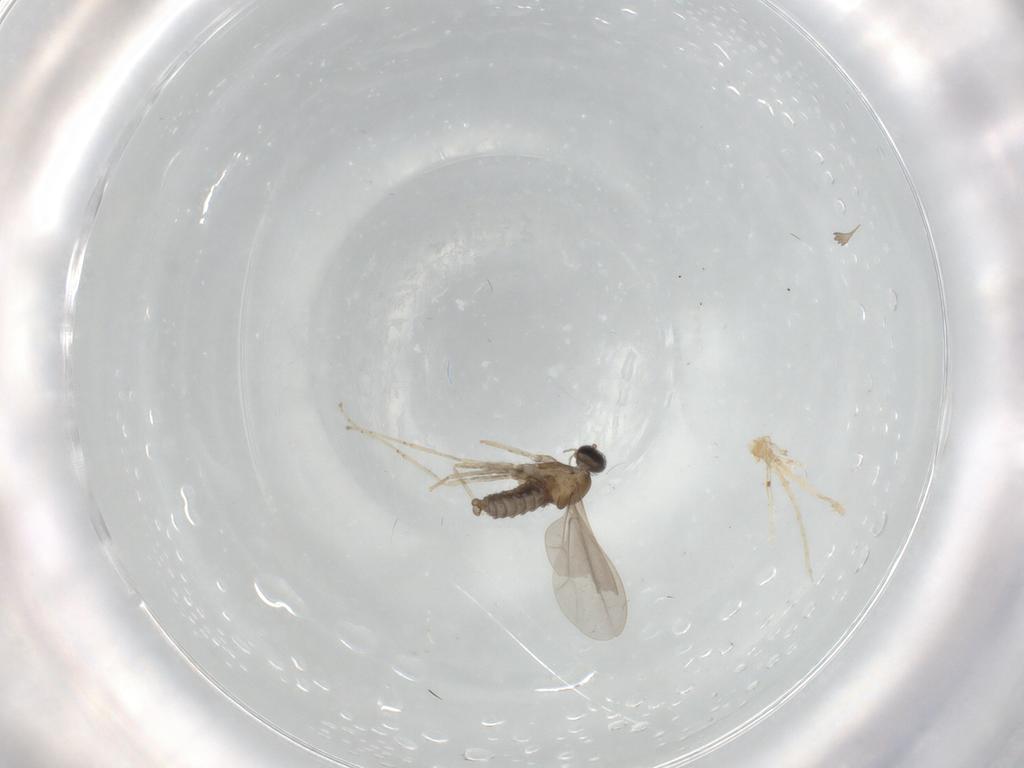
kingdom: Animalia
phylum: Arthropoda
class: Insecta
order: Diptera
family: Cecidomyiidae
